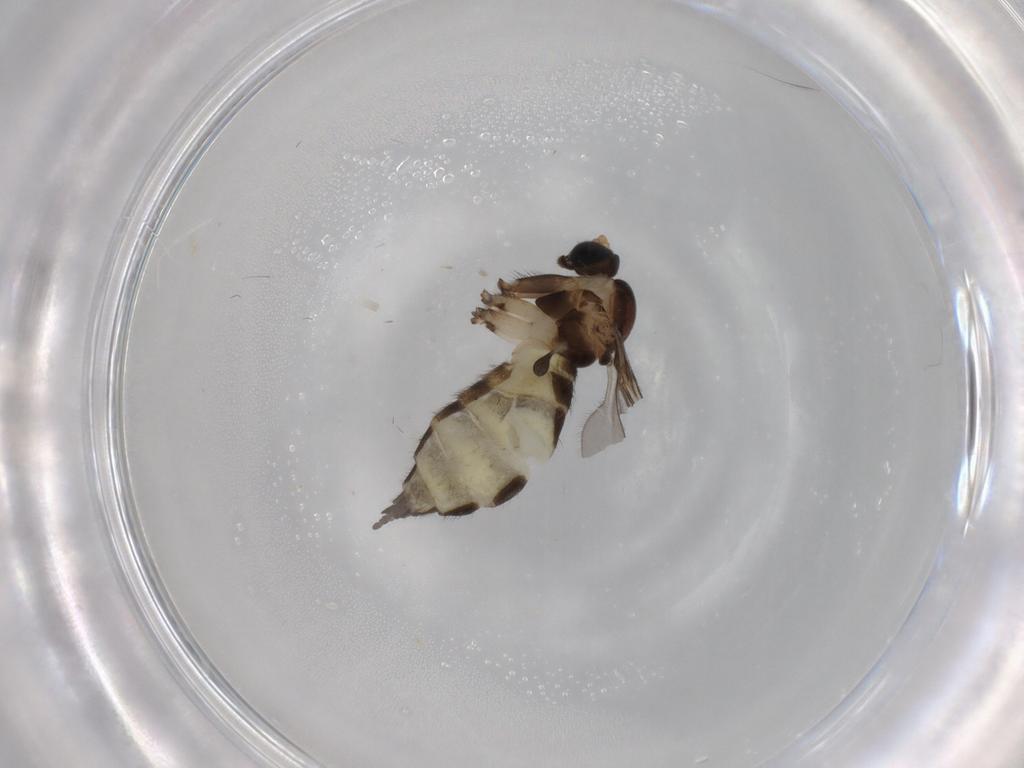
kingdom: Animalia
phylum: Arthropoda
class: Insecta
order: Diptera
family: Sciaridae
